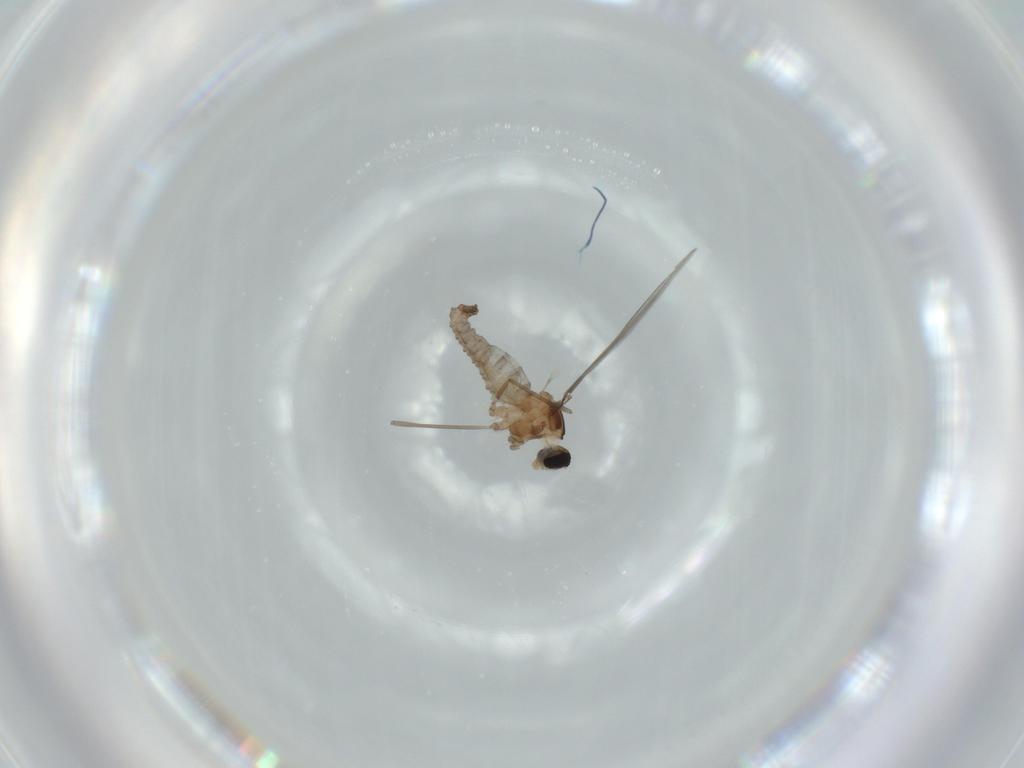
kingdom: Animalia
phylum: Arthropoda
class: Insecta
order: Diptera
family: Cecidomyiidae
